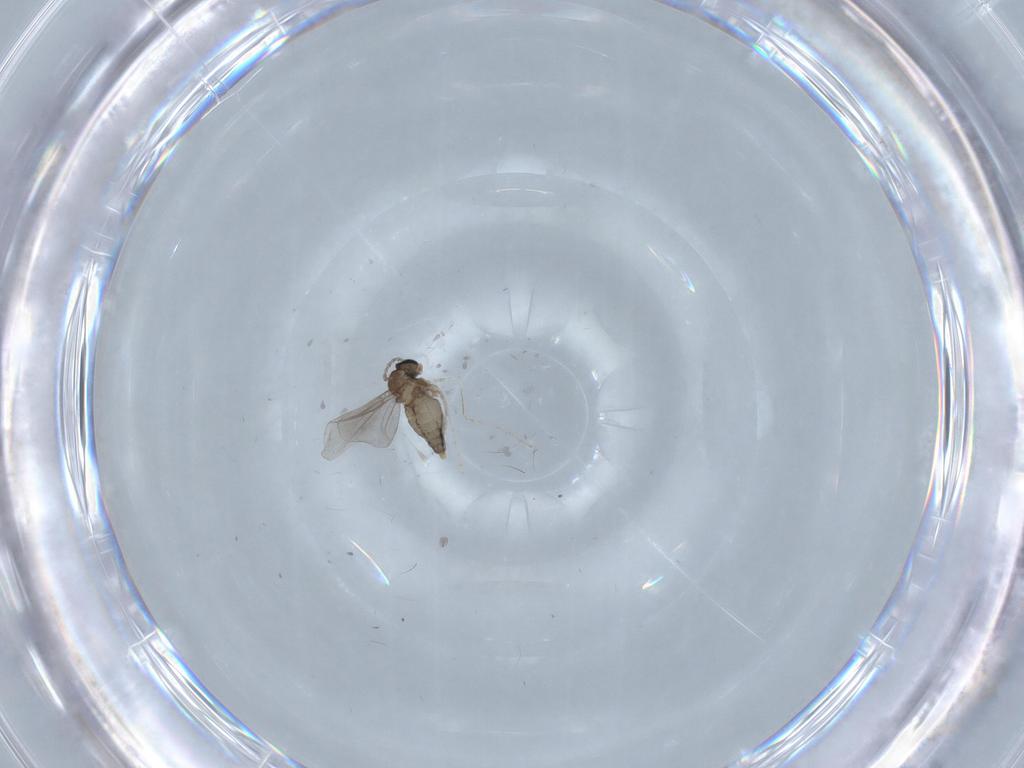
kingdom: Animalia
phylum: Arthropoda
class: Insecta
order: Diptera
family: Cecidomyiidae
